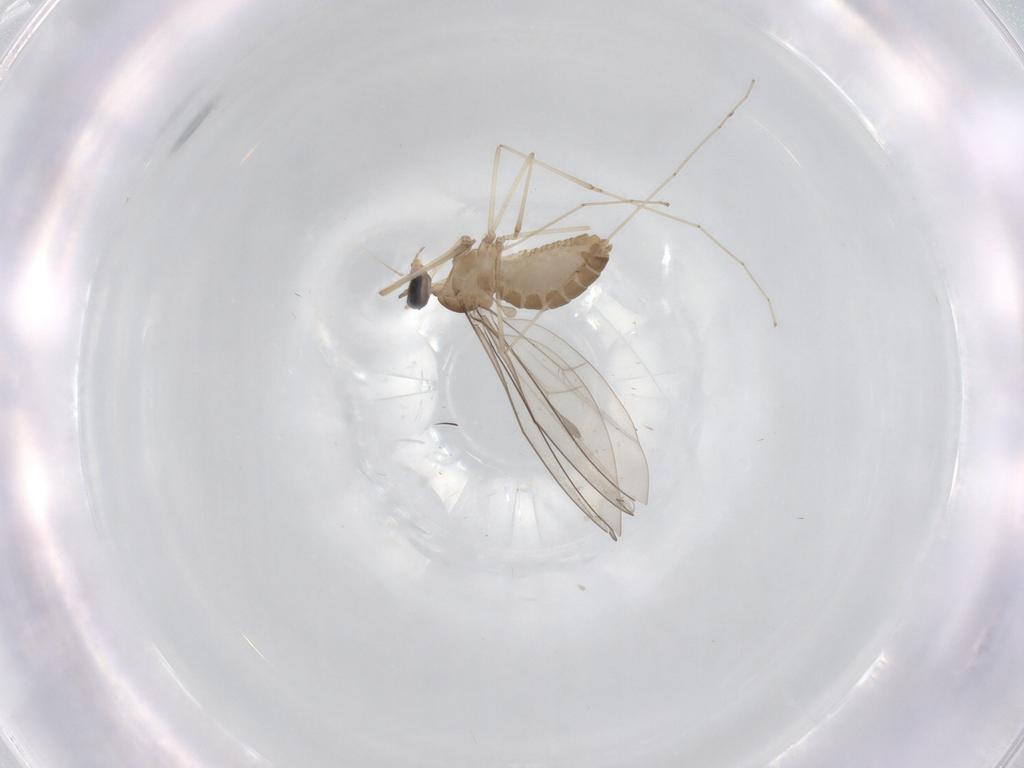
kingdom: Animalia
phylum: Arthropoda
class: Insecta
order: Diptera
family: Cecidomyiidae
